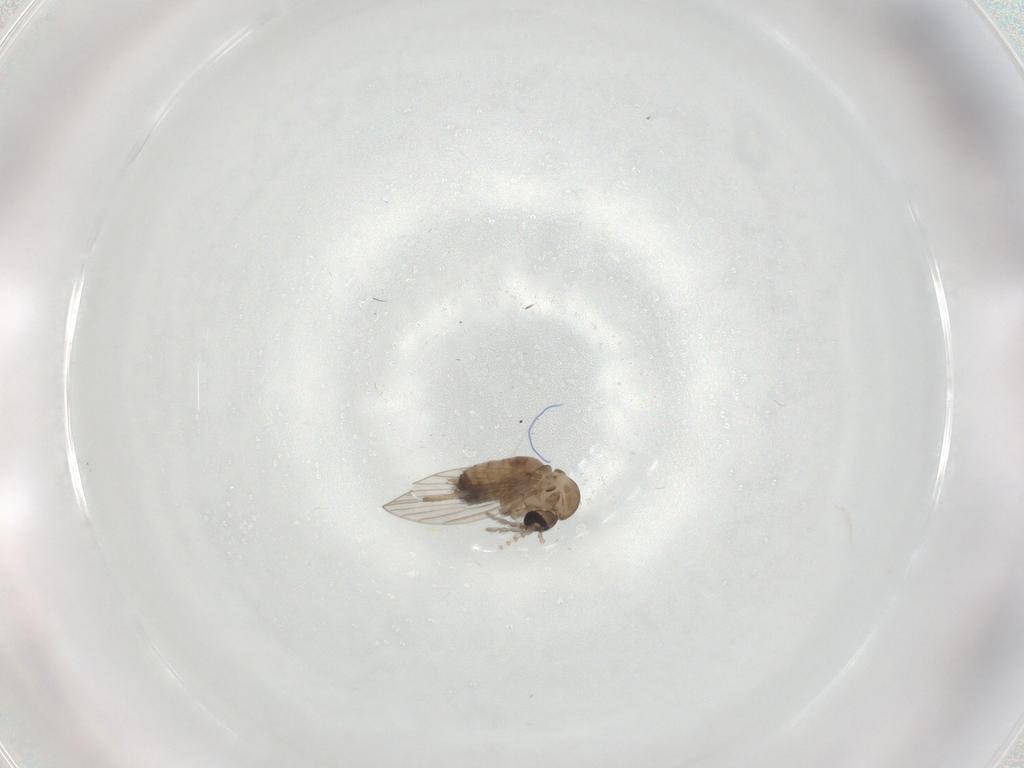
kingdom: Animalia
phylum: Arthropoda
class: Insecta
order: Diptera
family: Psychodidae
